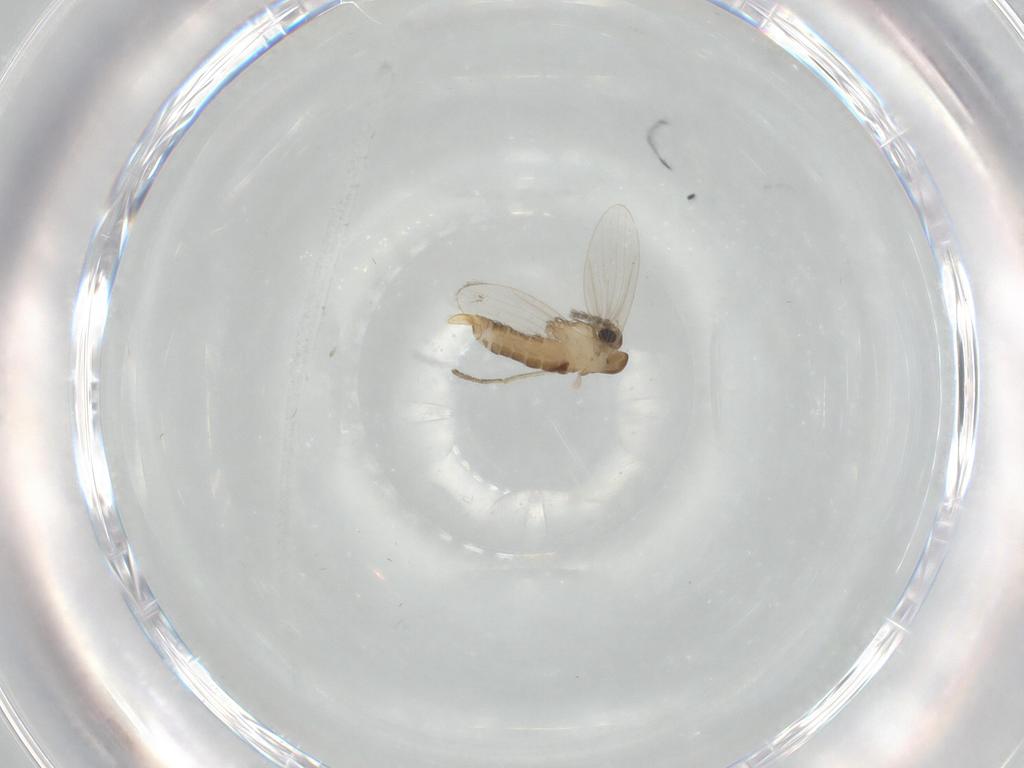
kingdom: Animalia
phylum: Arthropoda
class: Insecta
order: Diptera
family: Psychodidae
